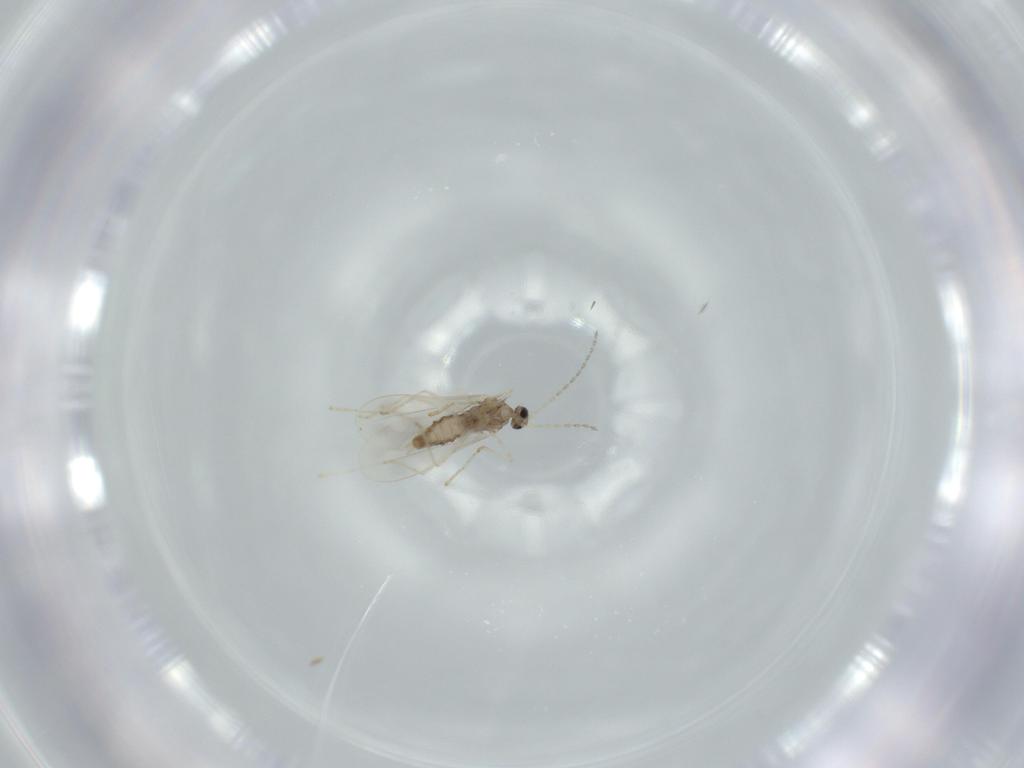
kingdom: Animalia
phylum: Arthropoda
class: Insecta
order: Diptera
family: Cecidomyiidae
